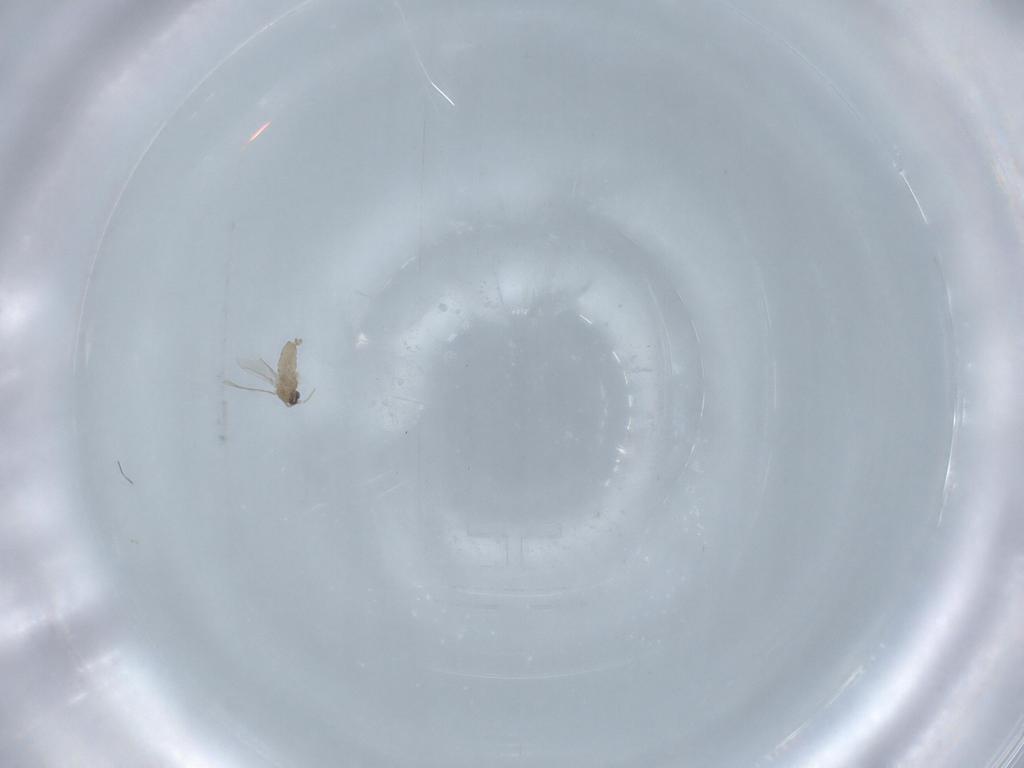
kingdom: Animalia
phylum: Arthropoda
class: Insecta
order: Diptera
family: Cecidomyiidae
